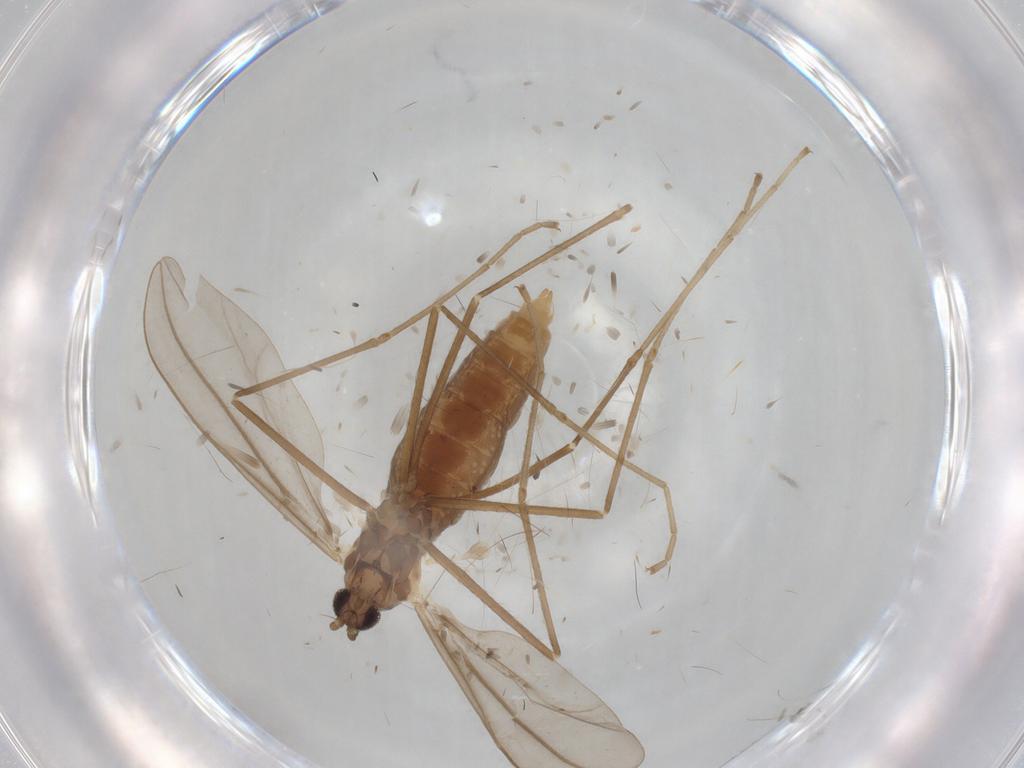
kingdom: Animalia
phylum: Arthropoda
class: Insecta
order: Diptera
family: Cecidomyiidae
